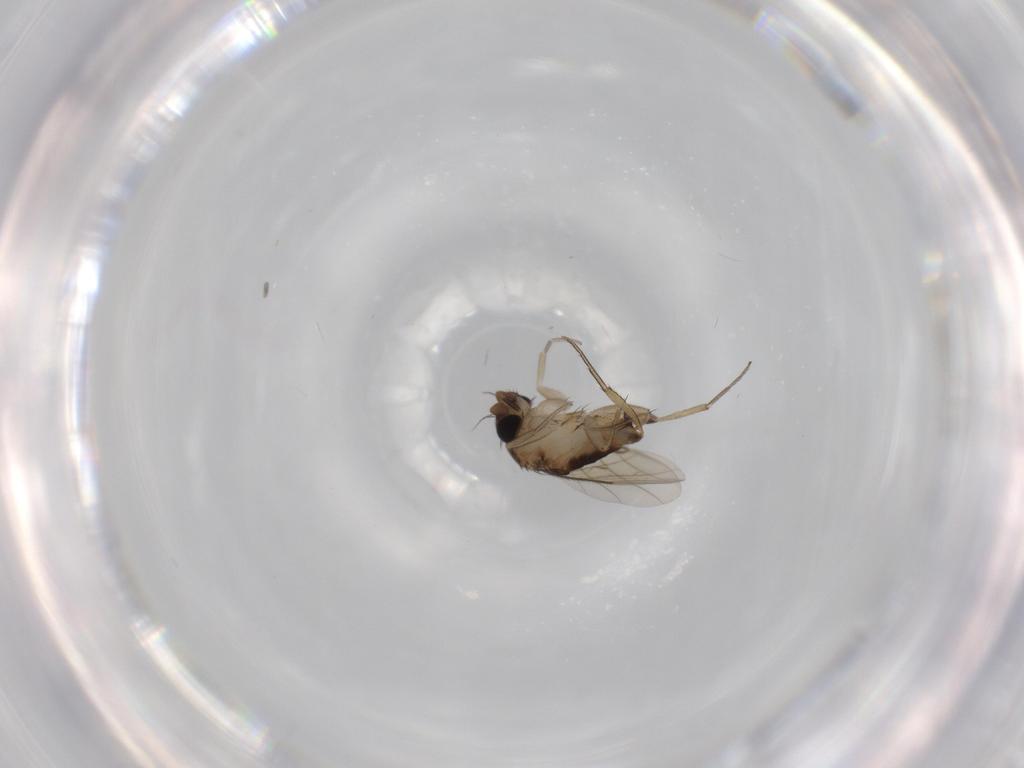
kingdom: Animalia
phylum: Arthropoda
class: Insecta
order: Diptera
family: Phoridae
